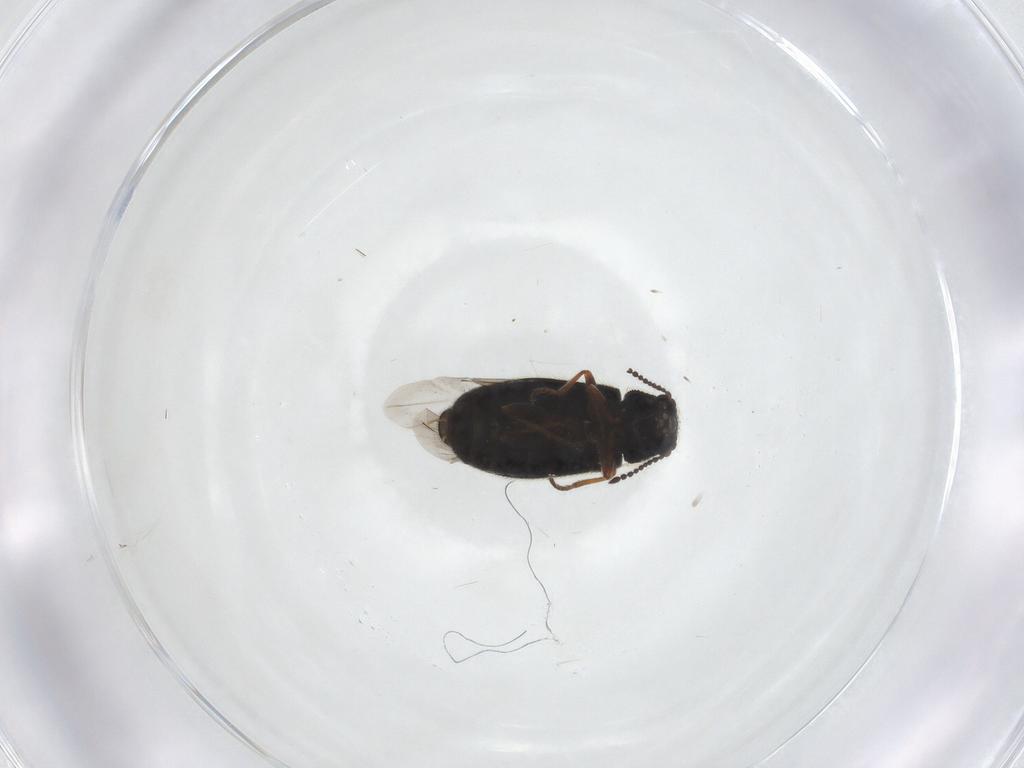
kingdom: Animalia
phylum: Arthropoda
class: Insecta
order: Coleoptera
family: Melyridae
